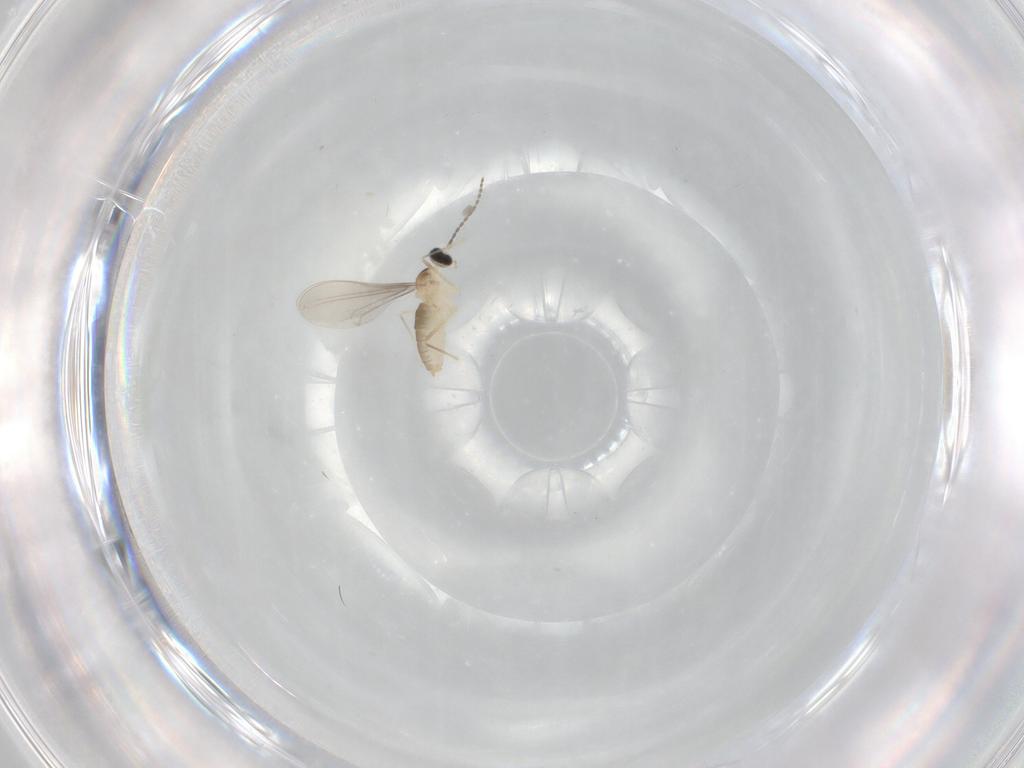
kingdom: Animalia
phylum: Arthropoda
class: Insecta
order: Diptera
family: Cecidomyiidae
